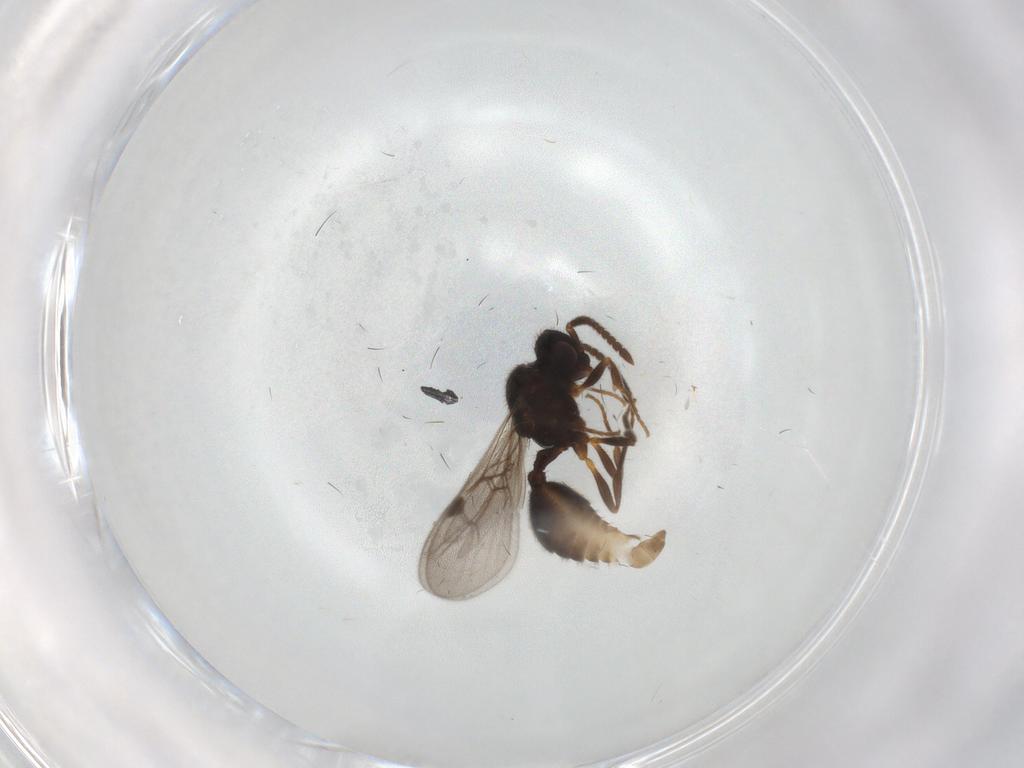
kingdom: Animalia
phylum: Arthropoda
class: Insecta
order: Hymenoptera
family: Formicidae
